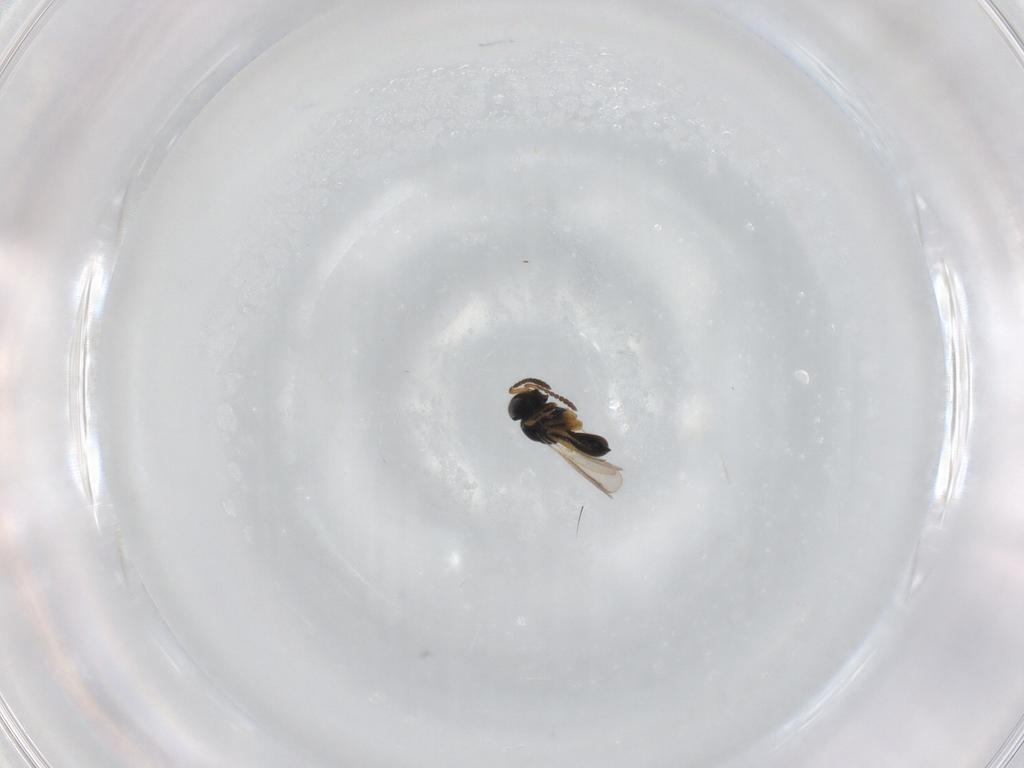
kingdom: Animalia
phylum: Arthropoda
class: Insecta
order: Hymenoptera
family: Scelionidae
